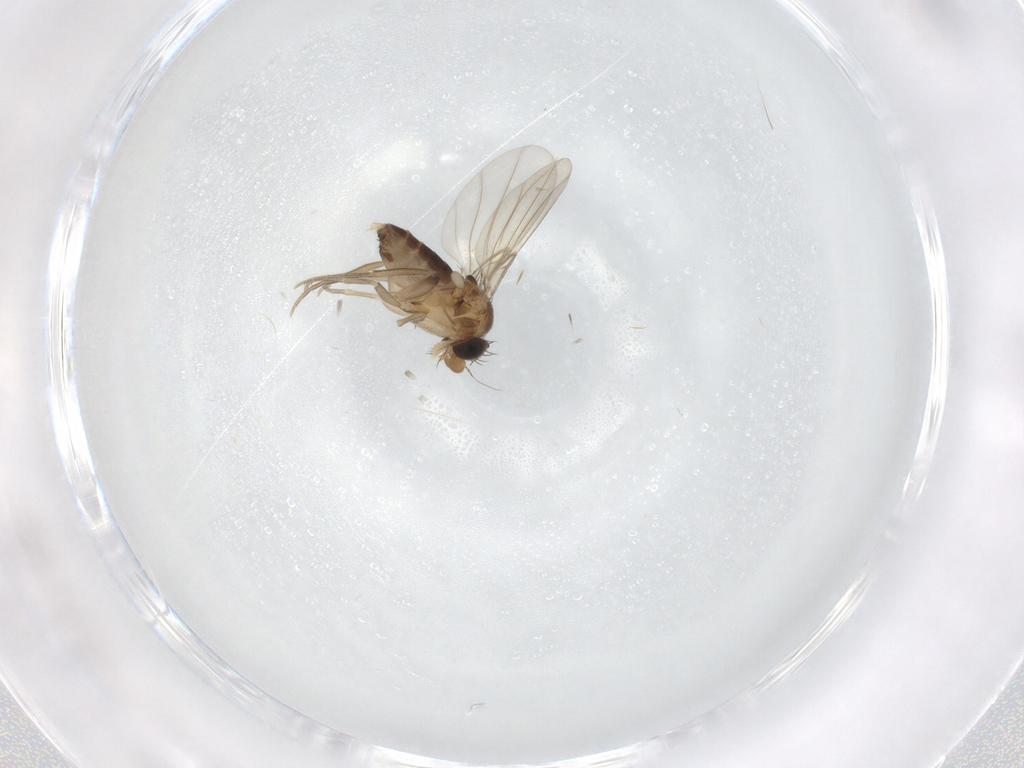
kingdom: Animalia
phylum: Arthropoda
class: Insecta
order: Diptera
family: Phoridae
